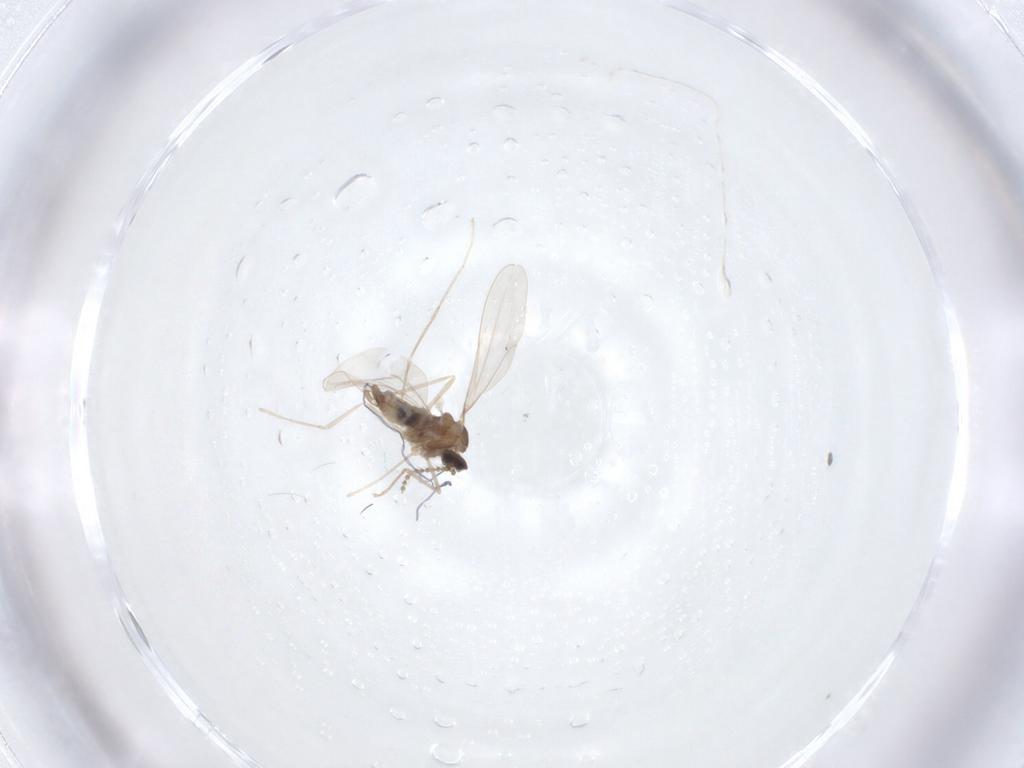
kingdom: Animalia
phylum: Arthropoda
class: Insecta
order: Diptera
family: Cecidomyiidae
